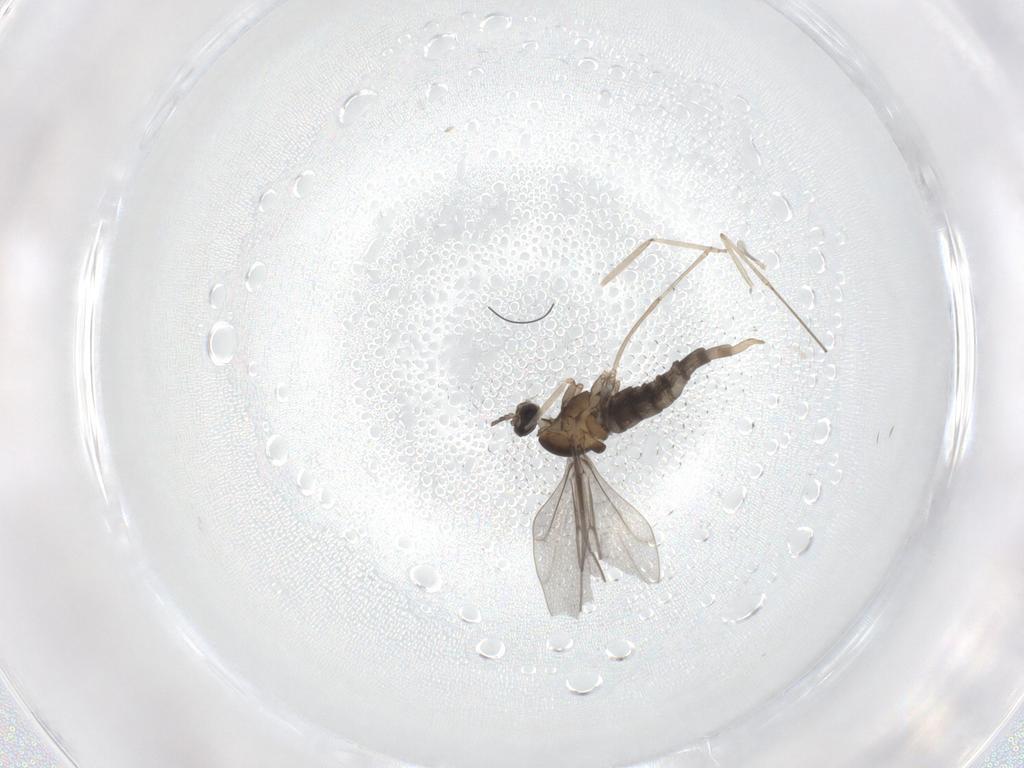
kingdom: Animalia
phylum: Arthropoda
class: Insecta
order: Diptera
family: Cecidomyiidae
